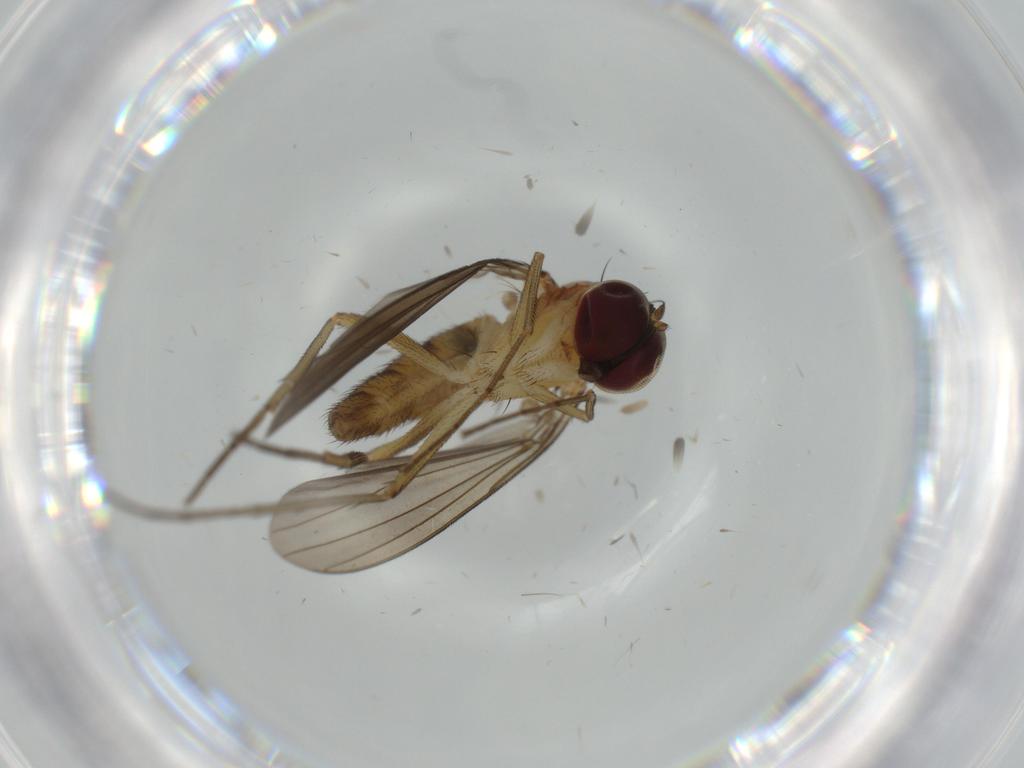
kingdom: Animalia
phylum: Arthropoda
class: Insecta
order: Diptera
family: Dolichopodidae
